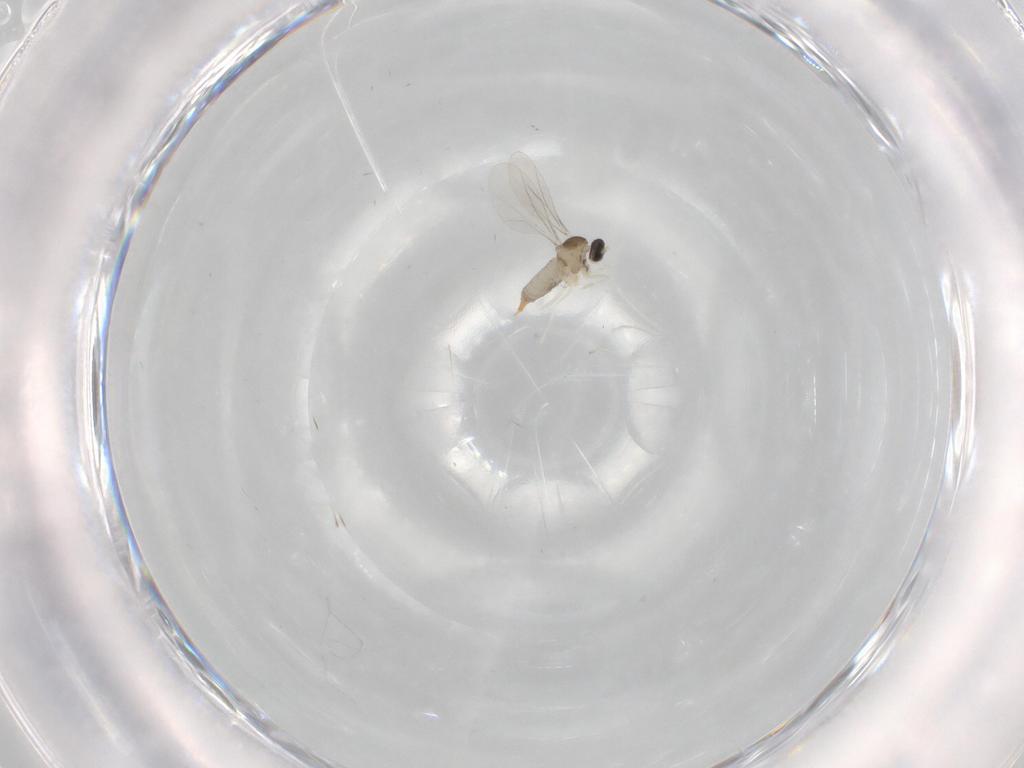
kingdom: Animalia
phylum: Arthropoda
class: Insecta
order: Diptera
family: Cecidomyiidae
